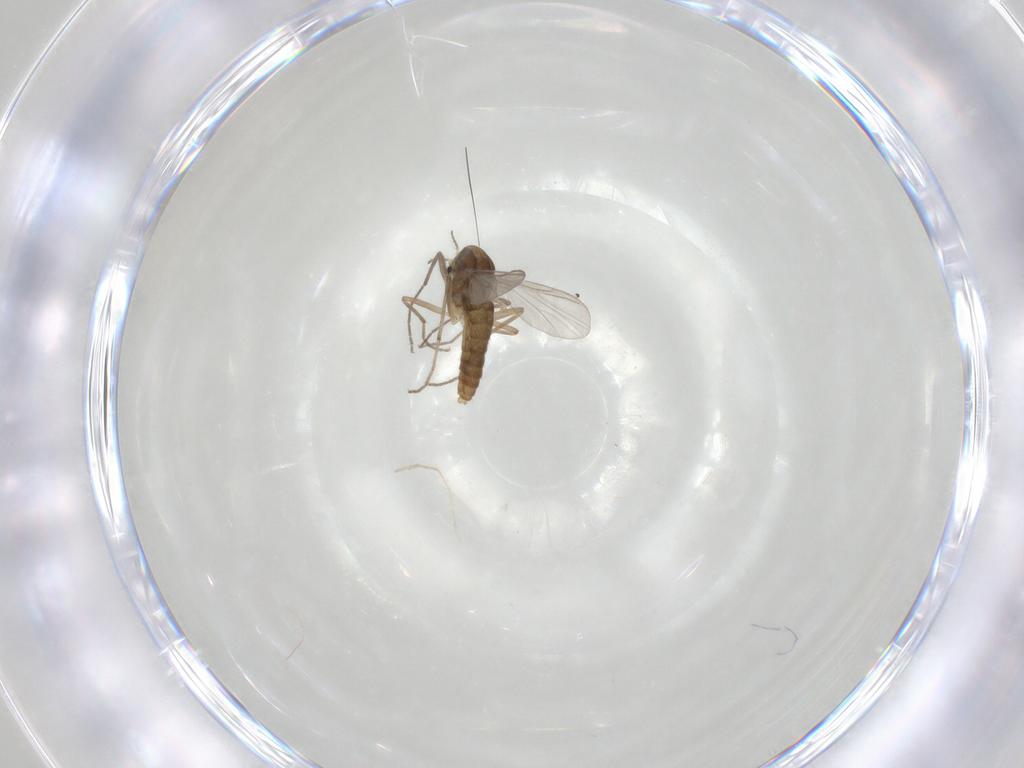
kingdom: Animalia
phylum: Arthropoda
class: Insecta
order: Diptera
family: Chironomidae
